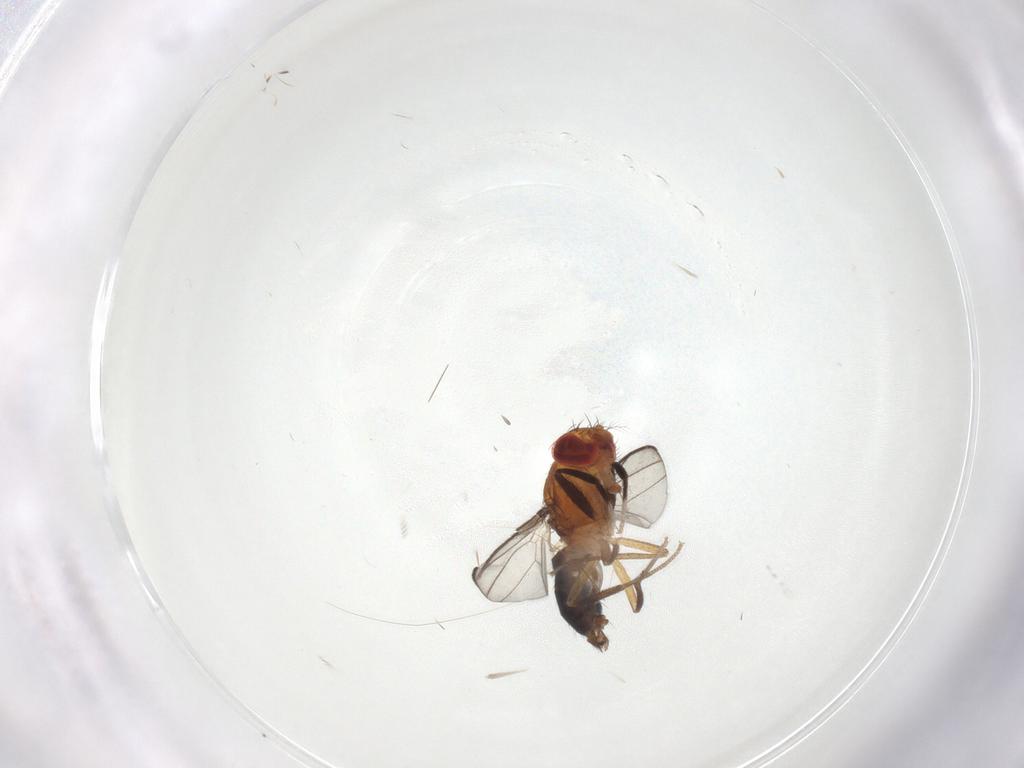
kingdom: Animalia
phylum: Arthropoda
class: Insecta
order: Diptera
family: Drosophilidae
